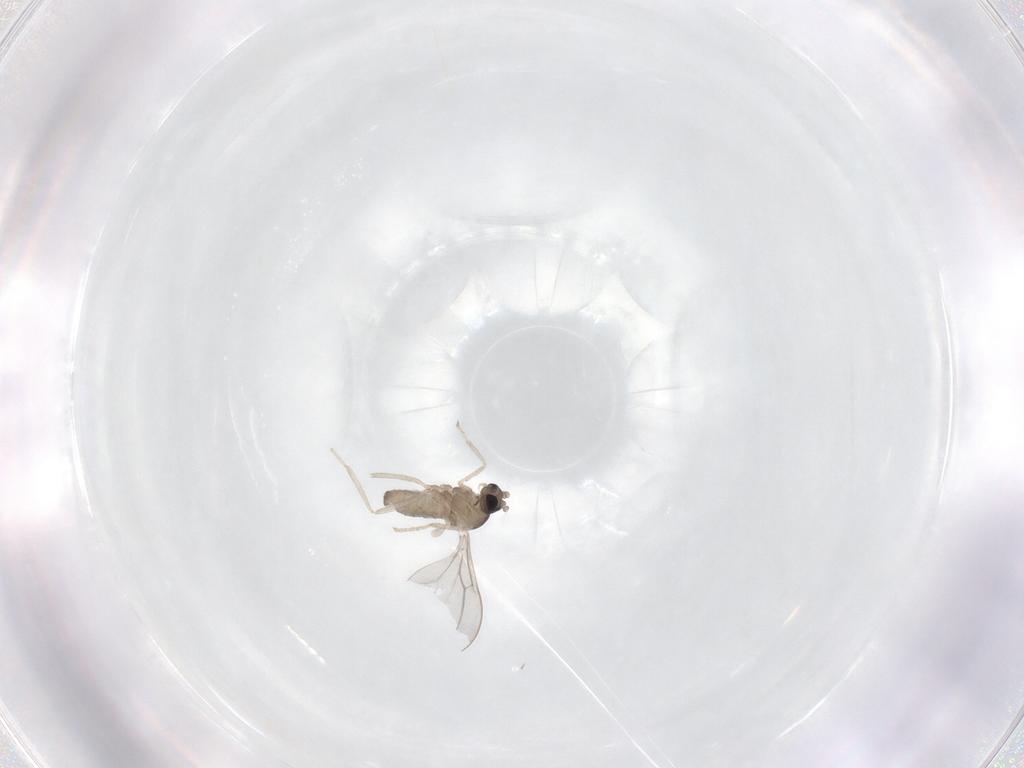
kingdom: Animalia
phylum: Arthropoda
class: Insecta
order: Diptera
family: Cecidomyiidae
